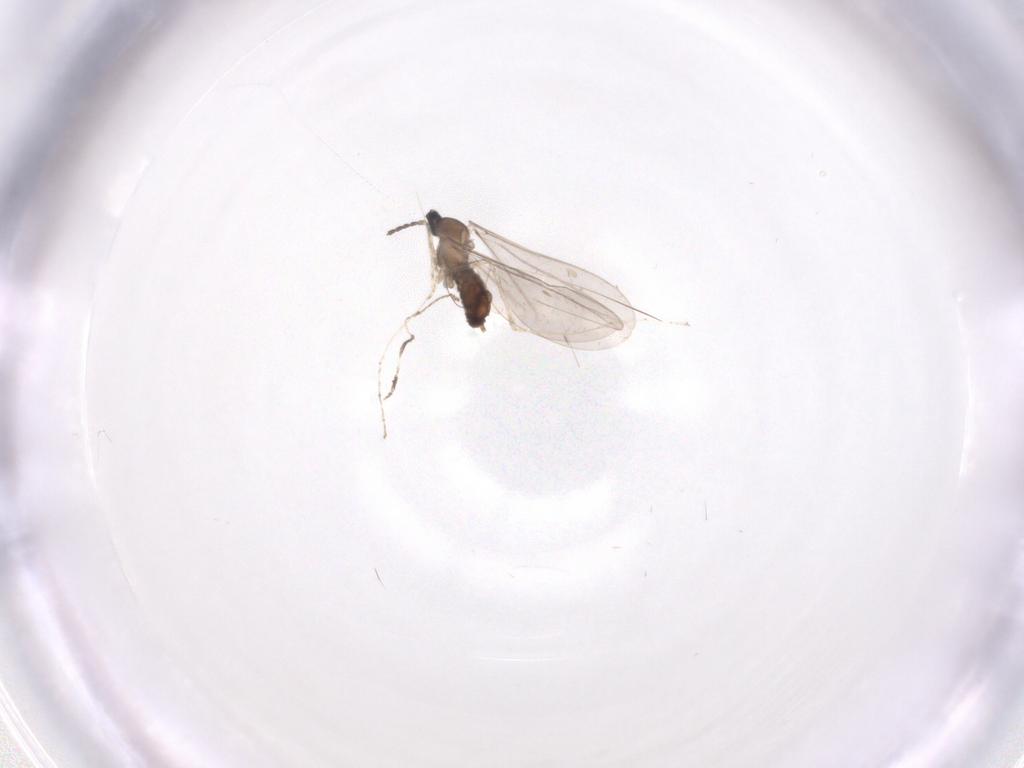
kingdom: Animalia
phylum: Arthropoda
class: Insecta
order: Diptera
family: Cecidomyiidae
